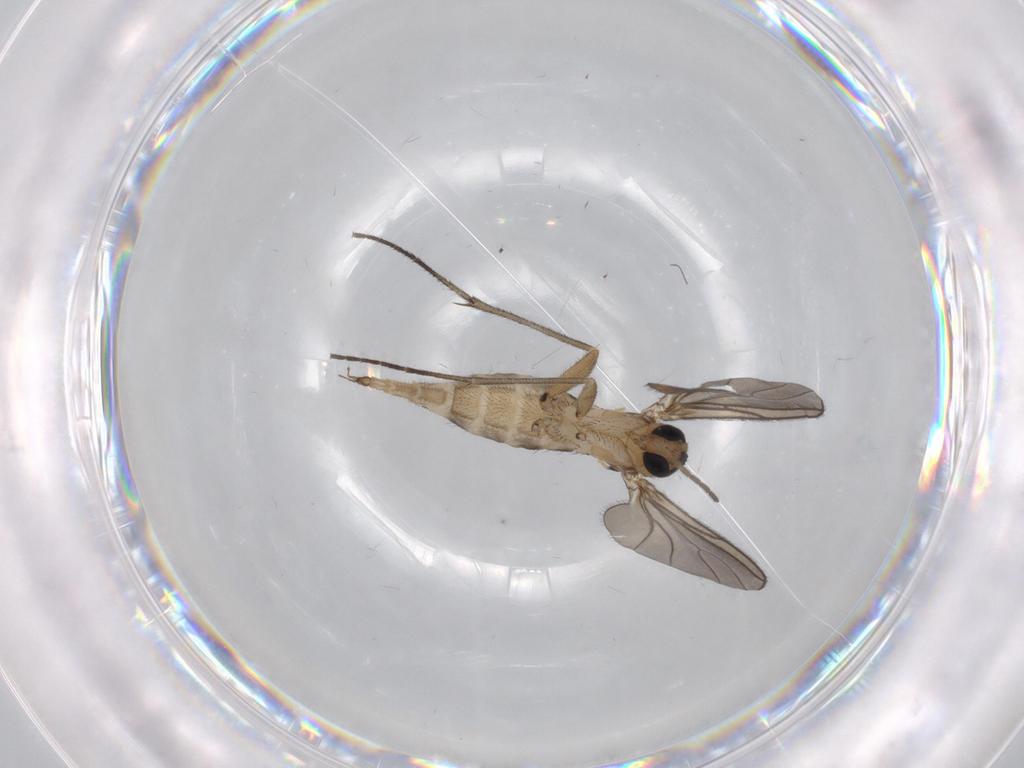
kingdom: Animalia
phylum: Arthropoda
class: Insecta
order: Diptera
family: Sciaridae
